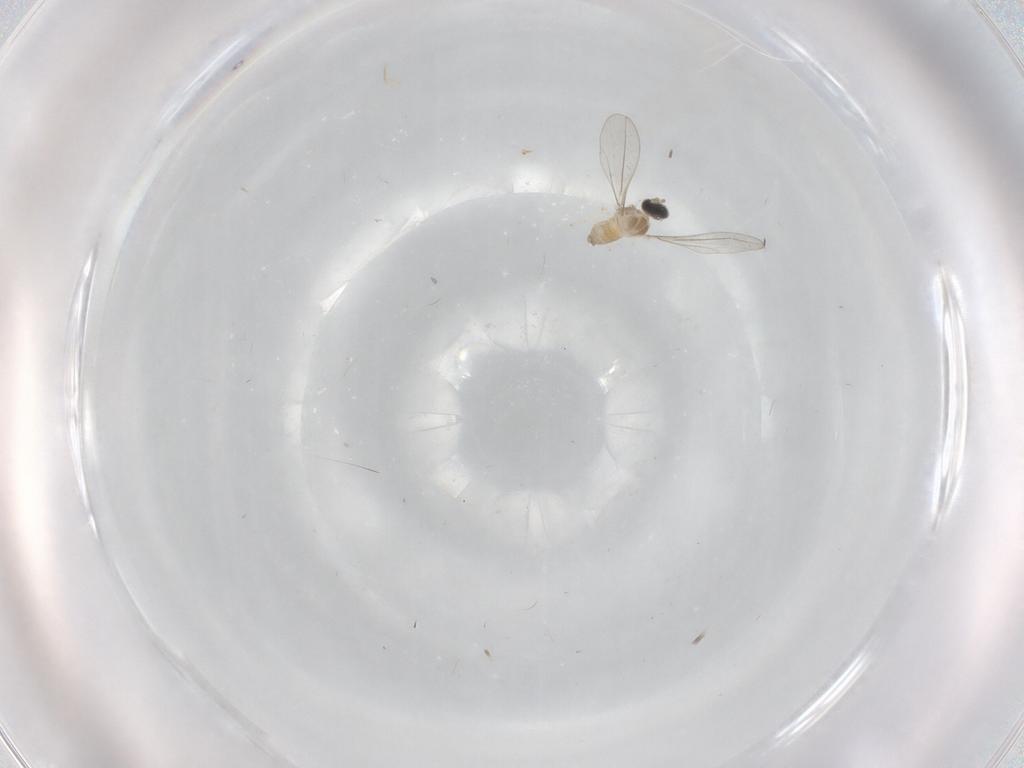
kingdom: Animalia
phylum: Arthropoda
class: Insecta
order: Diptera
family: Cecidomyiidae
